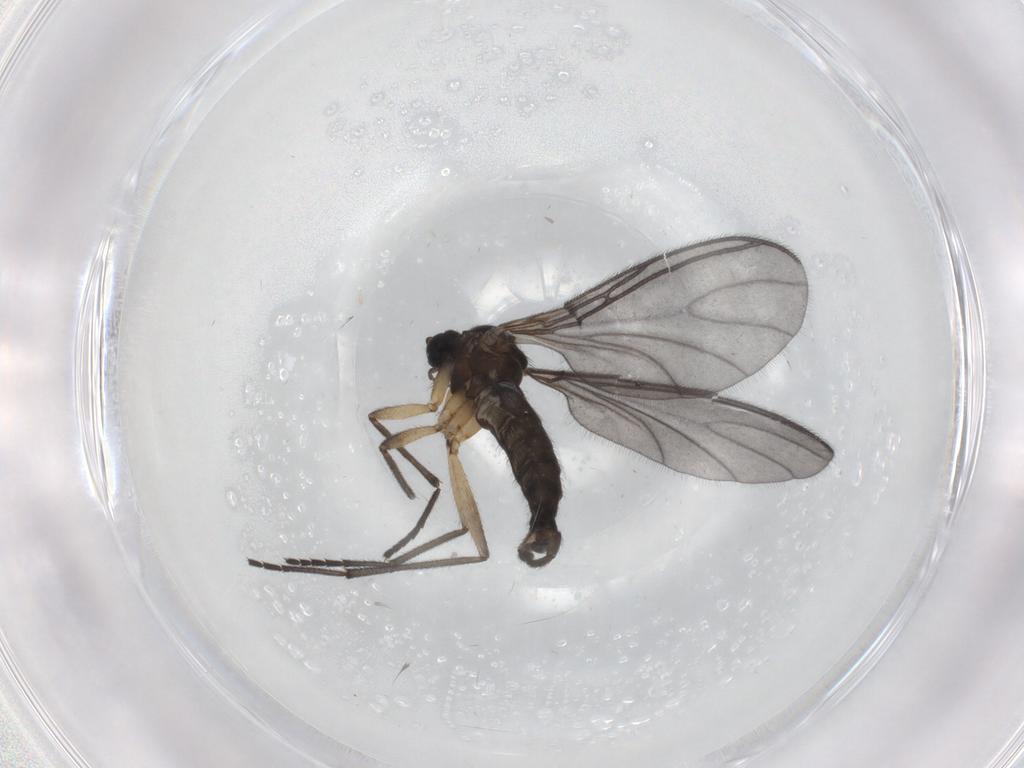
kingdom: Animalia
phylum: Arthropoda
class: Insecta
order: Diptera
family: Sciaridae
